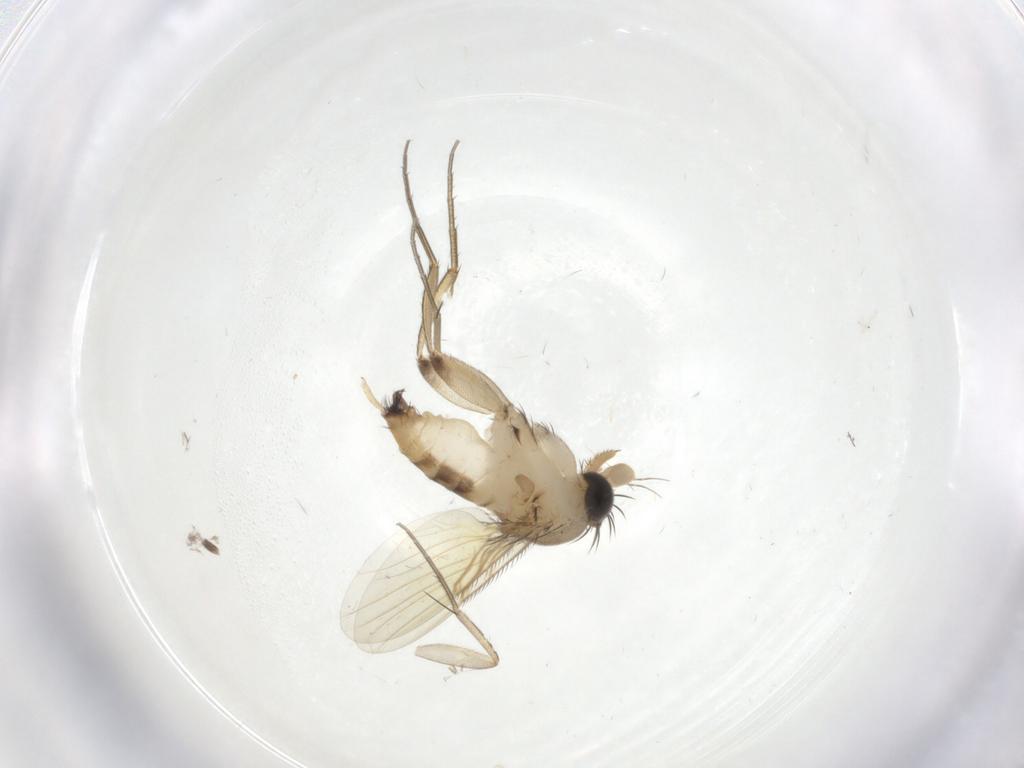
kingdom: Animalia
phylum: Arthropoda
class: Insecta
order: Diptera
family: Phoridae
